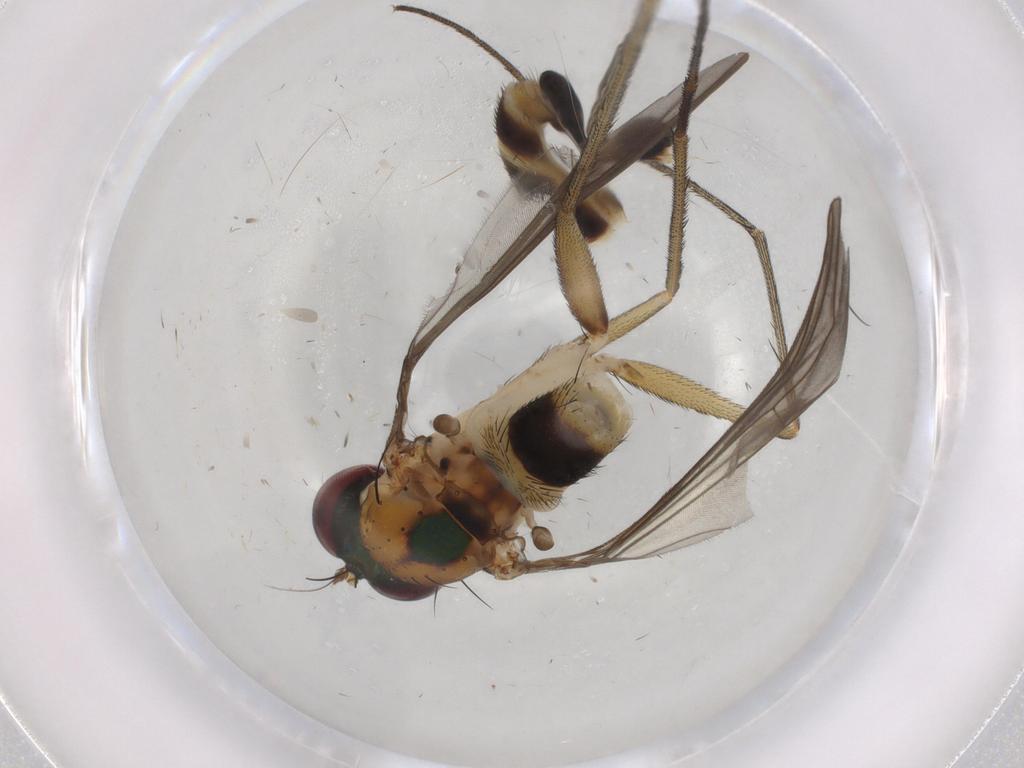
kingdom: Animalia
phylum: Arthropoda
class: Insecta
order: Diptera
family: Dolichopodidae
